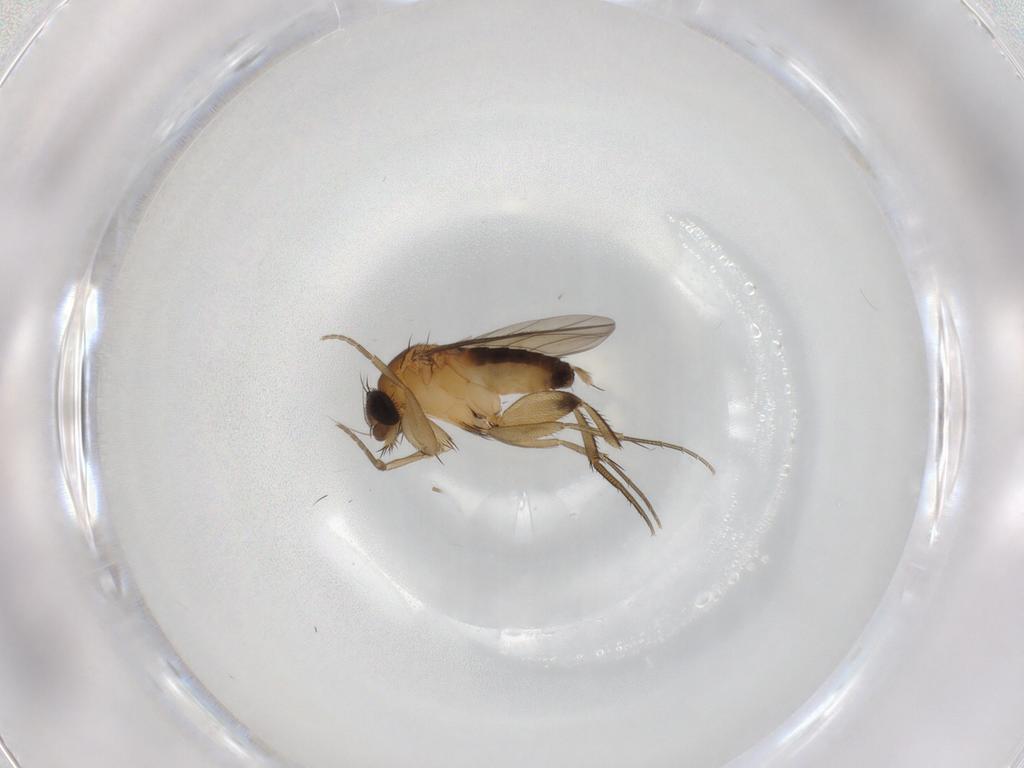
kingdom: Animalia
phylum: Arthropoda
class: Insecta
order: Diptera
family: Phoridae
